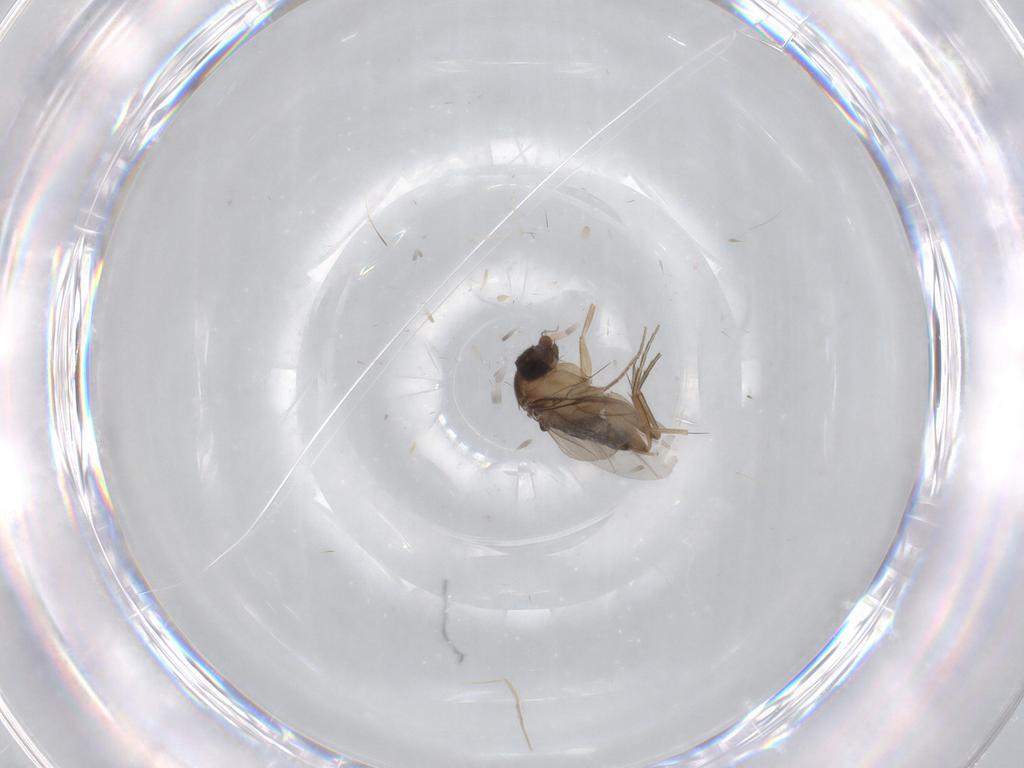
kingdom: Animalia
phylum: Arthropoda
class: Insecta
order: Diptera
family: Phoridae
